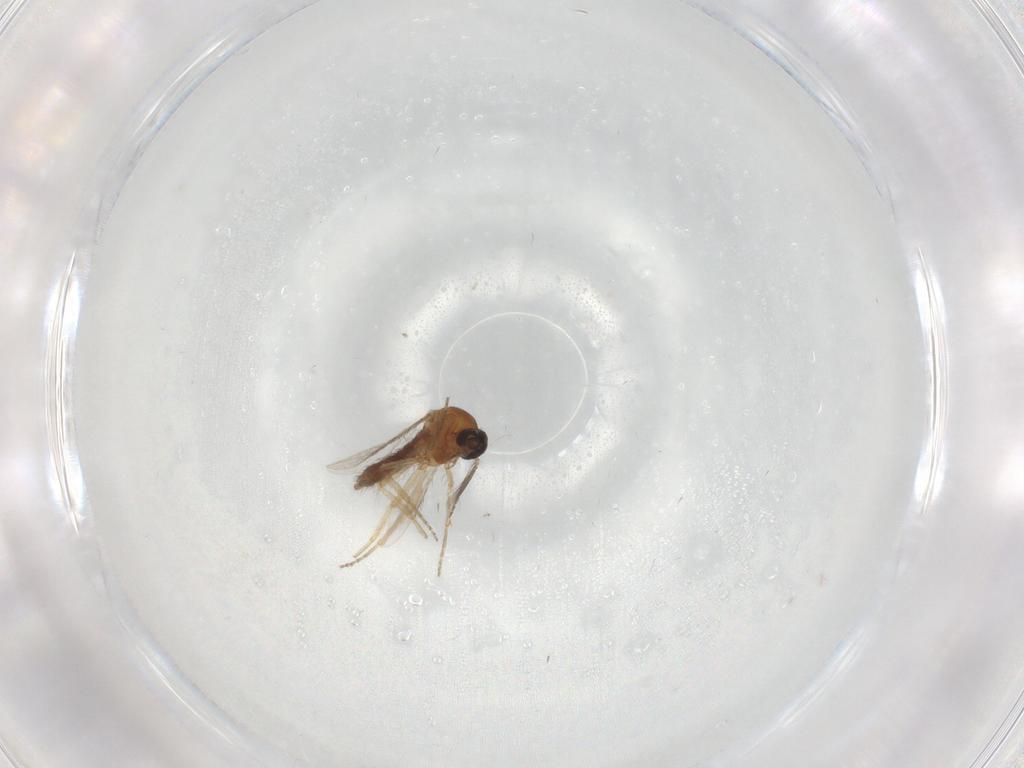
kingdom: Animalia
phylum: Arthropoda
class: Insecta
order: Diptera
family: Ceratopogonidae
